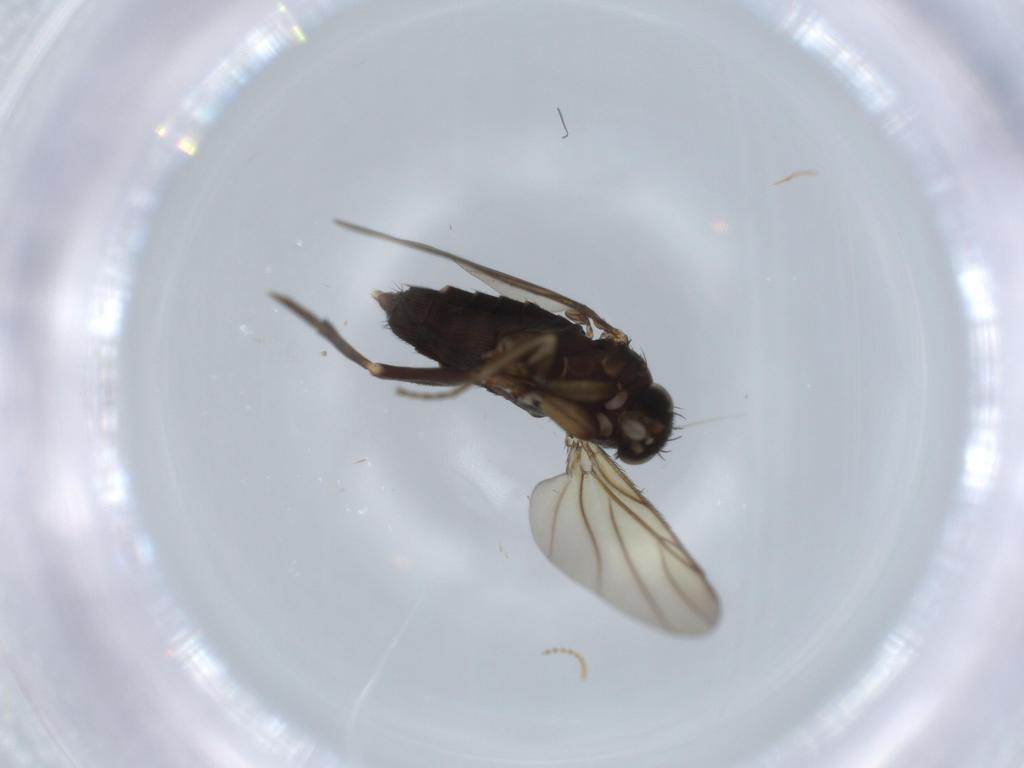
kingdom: Animalia
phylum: Arthropoda
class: Insecta
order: Diptera
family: Phoridae
